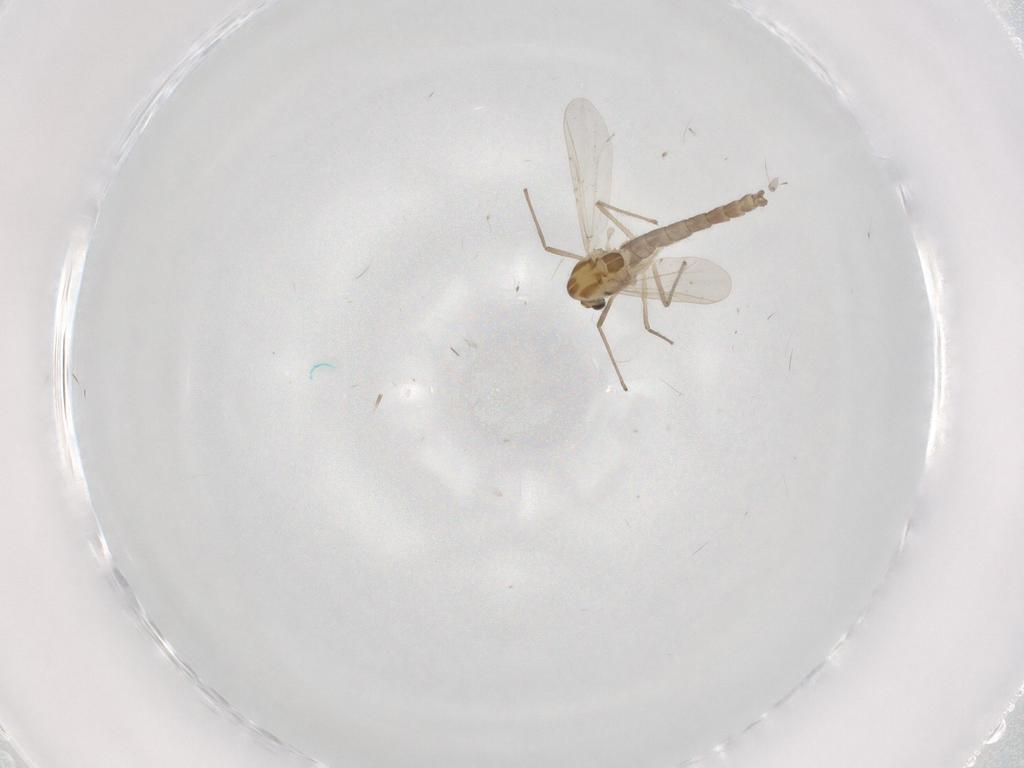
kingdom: Animalia
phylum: Arthropoda
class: Insecta
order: Diptera
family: Chironomidae
